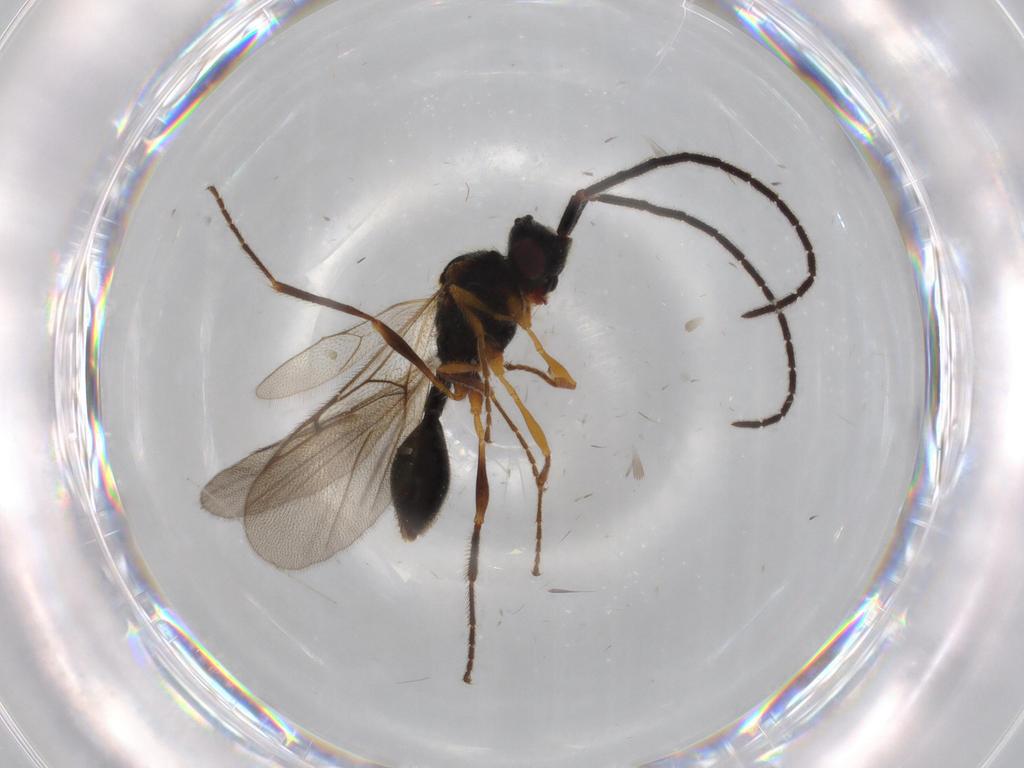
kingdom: Animalia
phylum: Arthropoda
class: Insecta
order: Hymenoptera
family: Diapriidae
